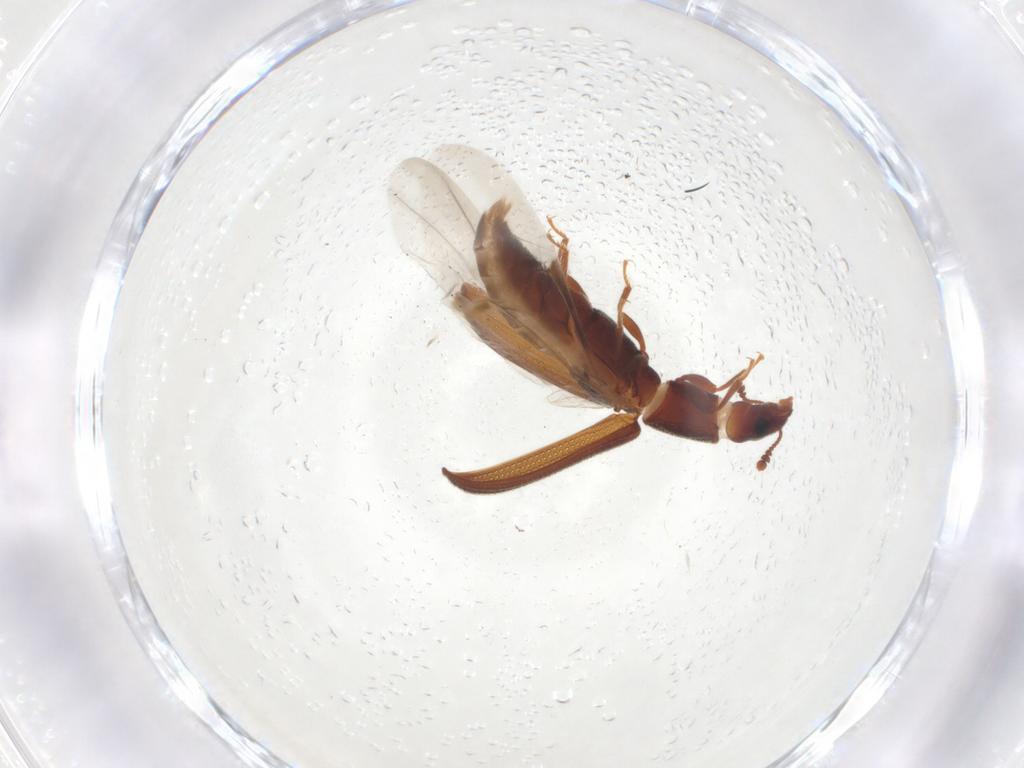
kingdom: Animalia
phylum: Arthropoda
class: Insecta
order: Coleoptera
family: Zopheridae
